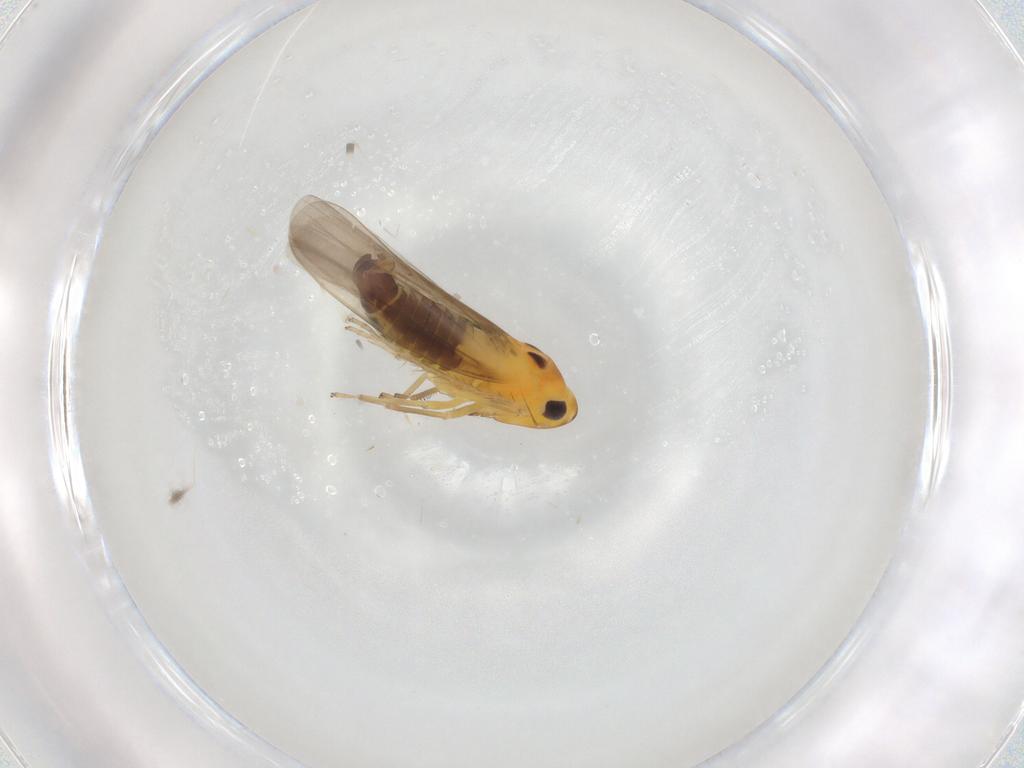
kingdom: Animalia
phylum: Arthropoda
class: Insecta
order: Hemiptera
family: Cicadellidae
